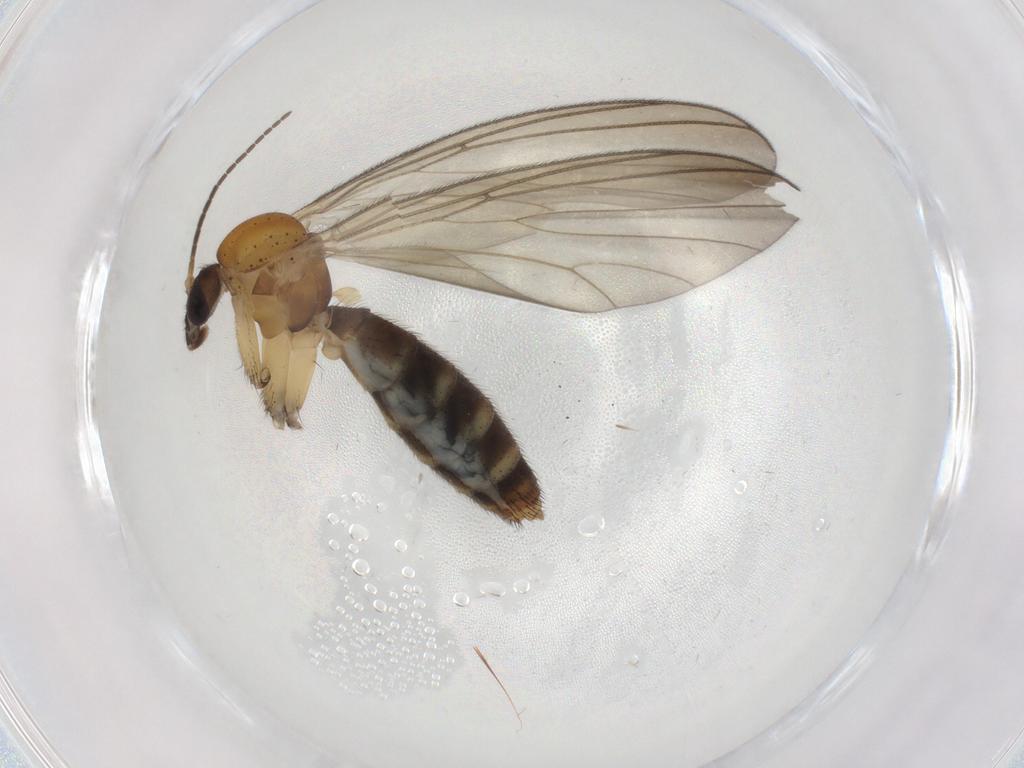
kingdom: Animalia
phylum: Arthropoda
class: Insecta
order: Diptera
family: Mycetophilidae
